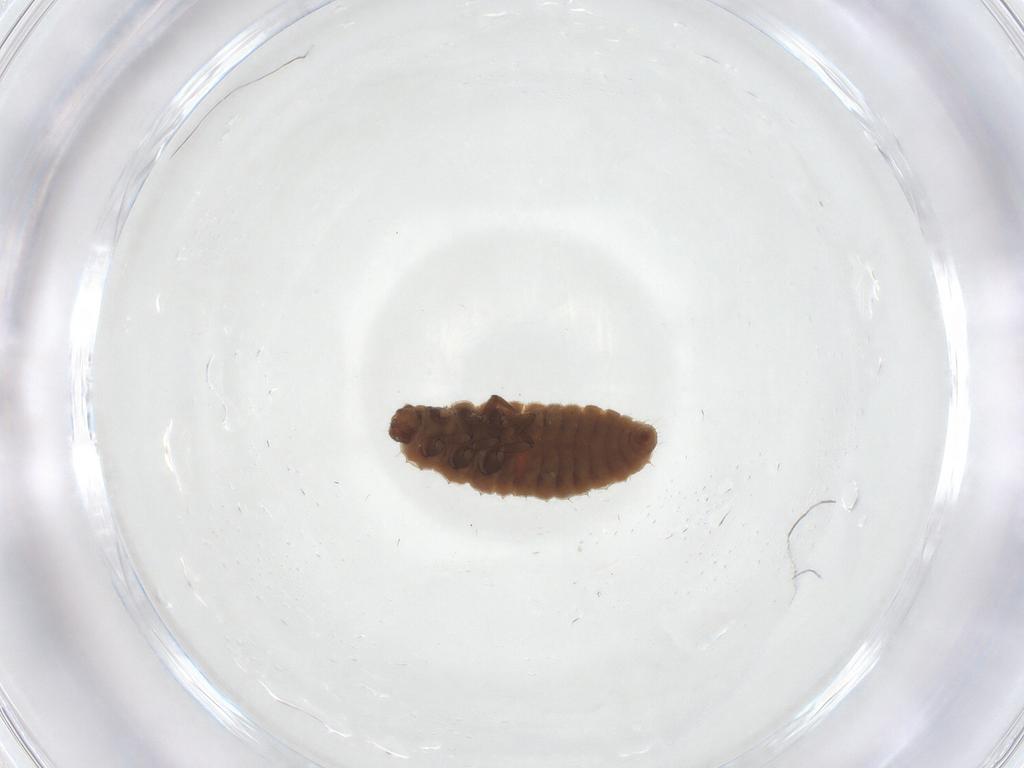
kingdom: Animalia
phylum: Arthropoda
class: Insecta
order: Coleoptera
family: Coccinellidae
